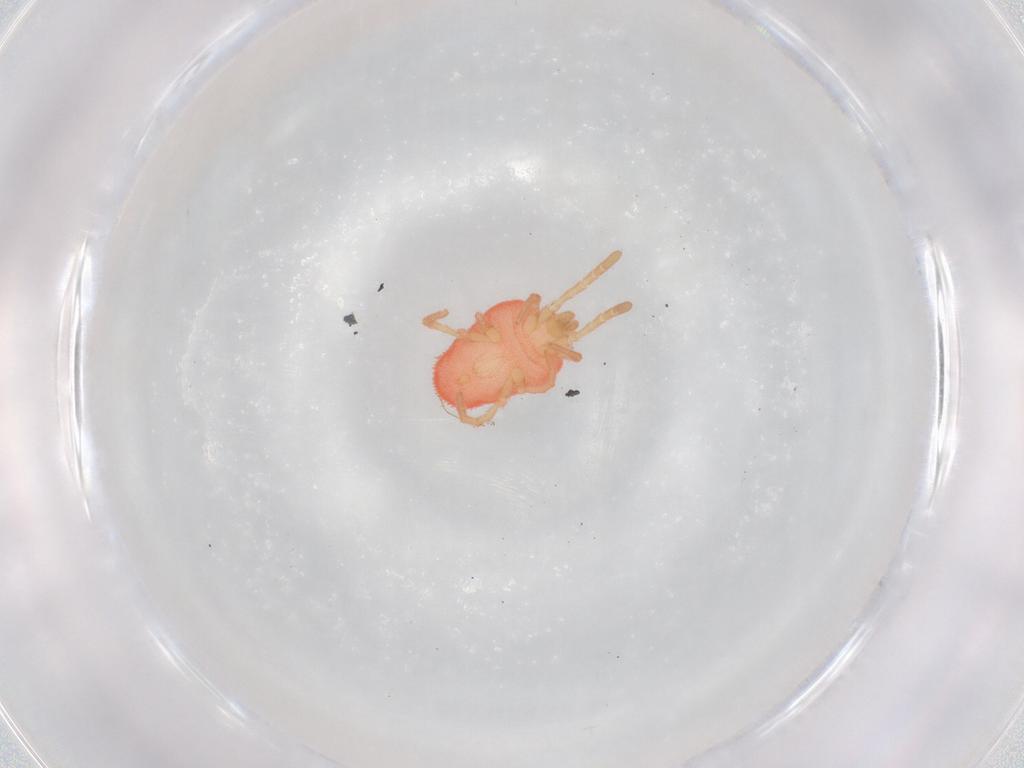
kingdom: Animalia
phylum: Arthropoda
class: Arachnida
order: Trombidiformes
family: Trombidiidae
